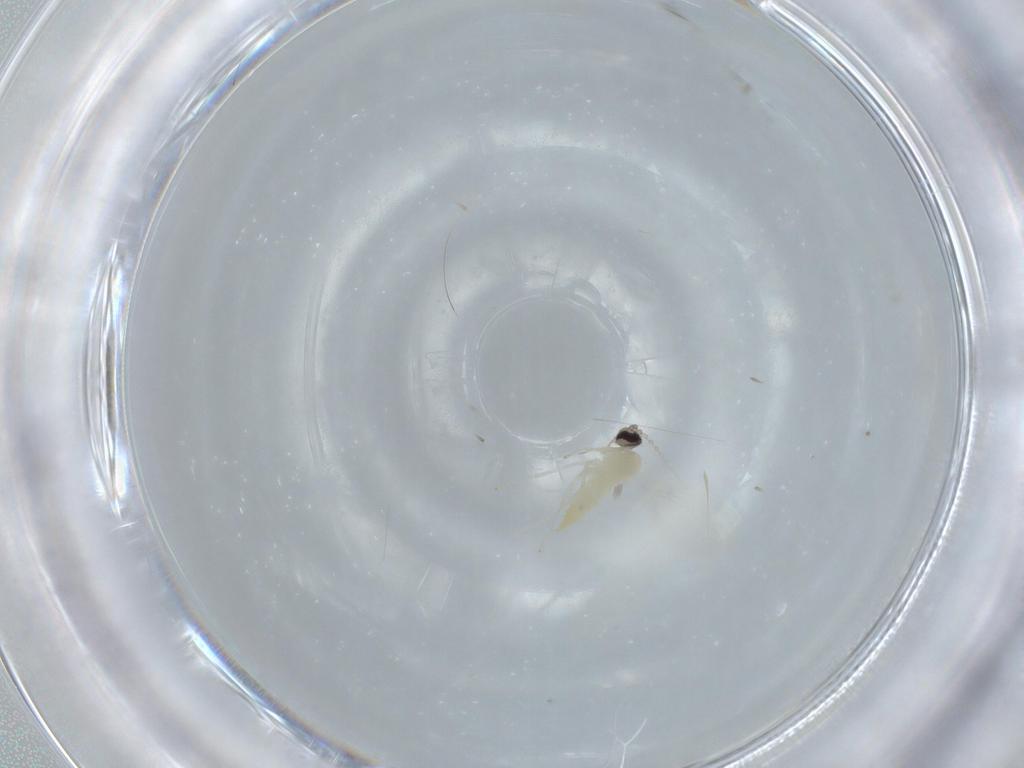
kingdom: Animalia
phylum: Arthropoda
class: Insecta
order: Diptera
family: Cecidomyiidae
